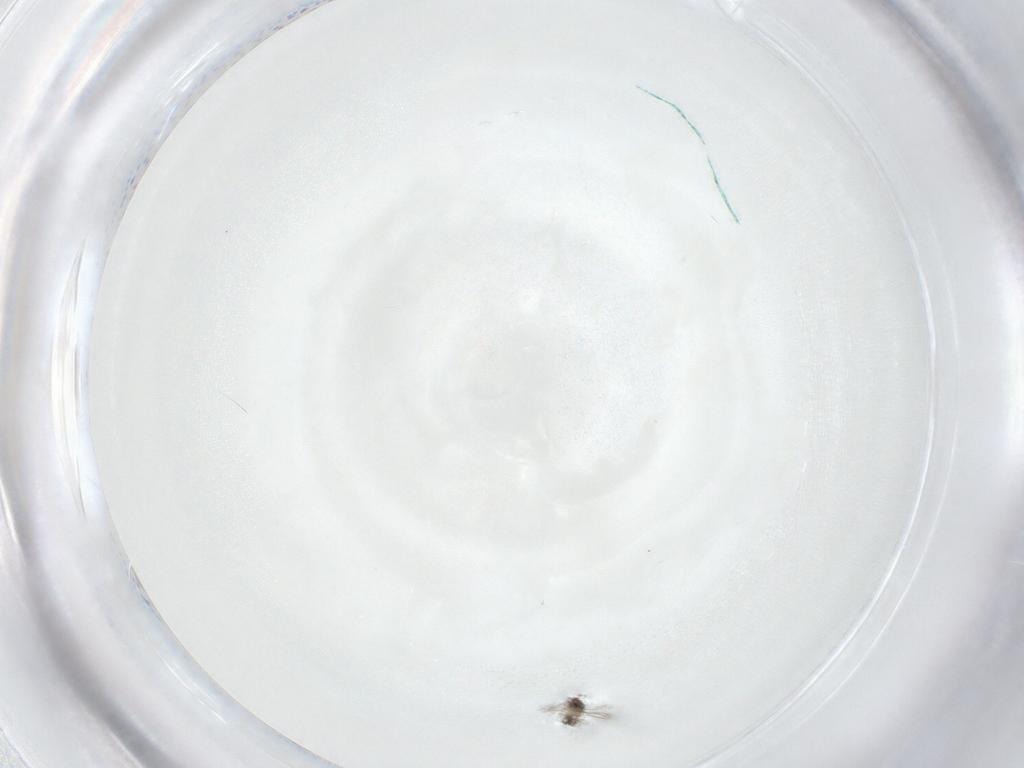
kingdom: Animalia
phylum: Arthropoda
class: Insecta
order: Hymenoptera
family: Mymaridae
